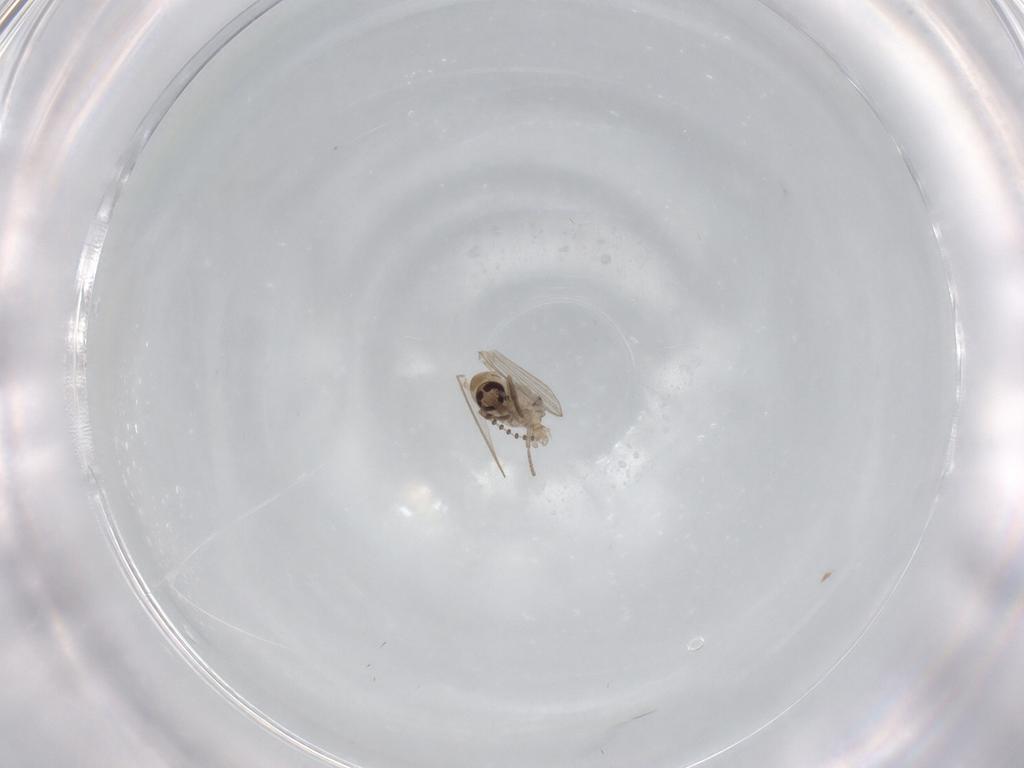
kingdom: Animalia
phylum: Arthropoda
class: Insecta
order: Diptera
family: Psychodidae
